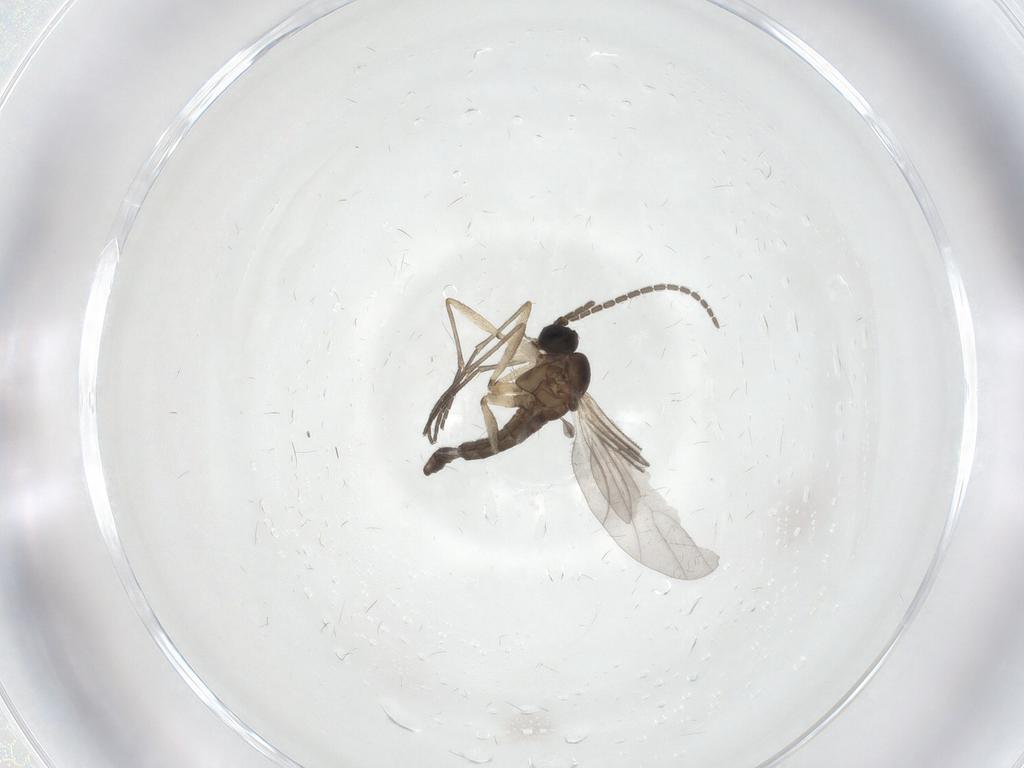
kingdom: Animalia
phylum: Arthropoda
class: Insecta
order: Diptera
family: Sciaridae
